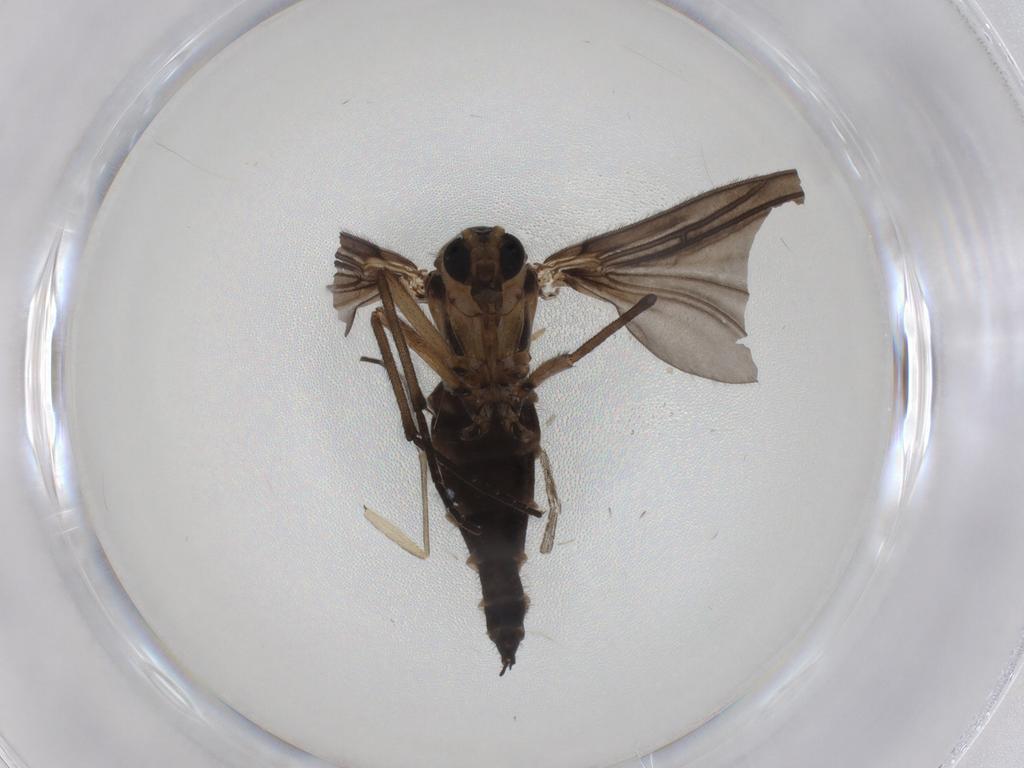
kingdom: Animalia
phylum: Arthropoda
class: Insecta
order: Diptera
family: Sciaridae
